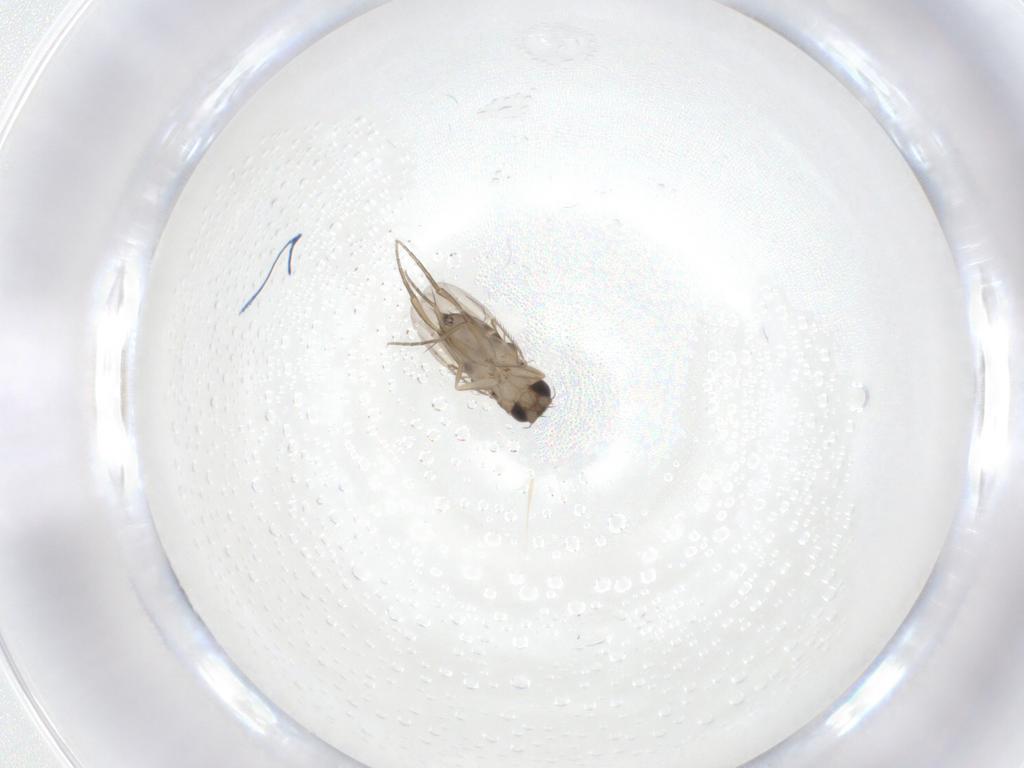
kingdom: Animalia
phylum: Arthropoda
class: Insecta
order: Diptera
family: Phoridae
